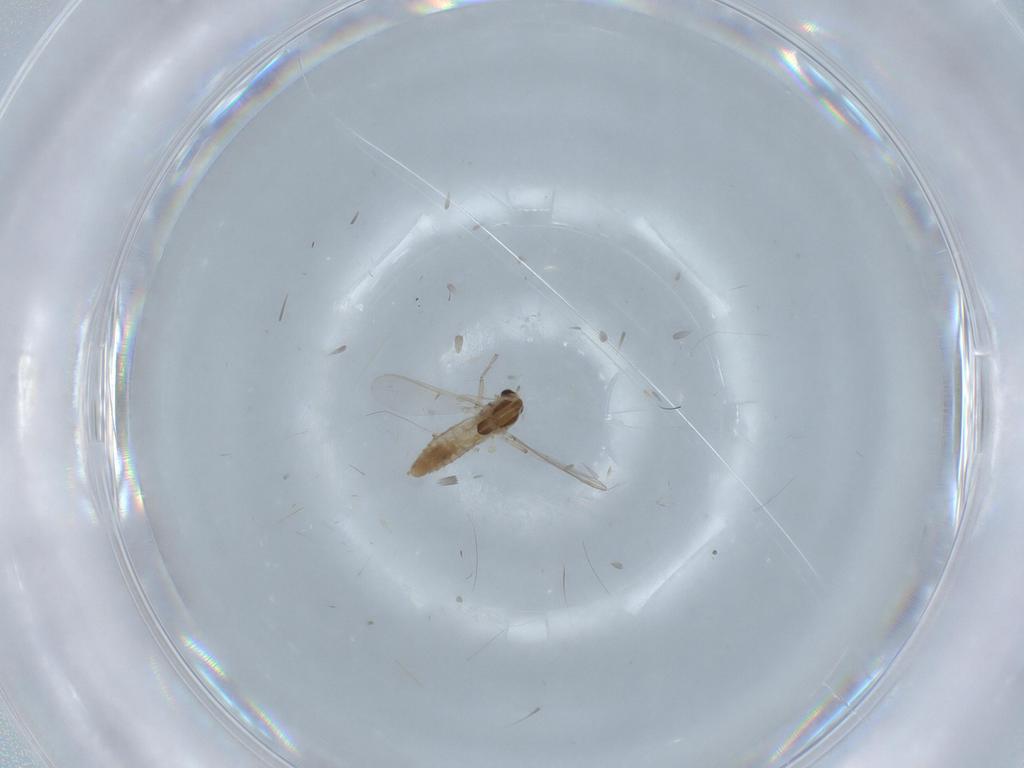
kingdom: Animalia
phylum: Arthropoda
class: Insecta
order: Diptera
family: Chironomidae
